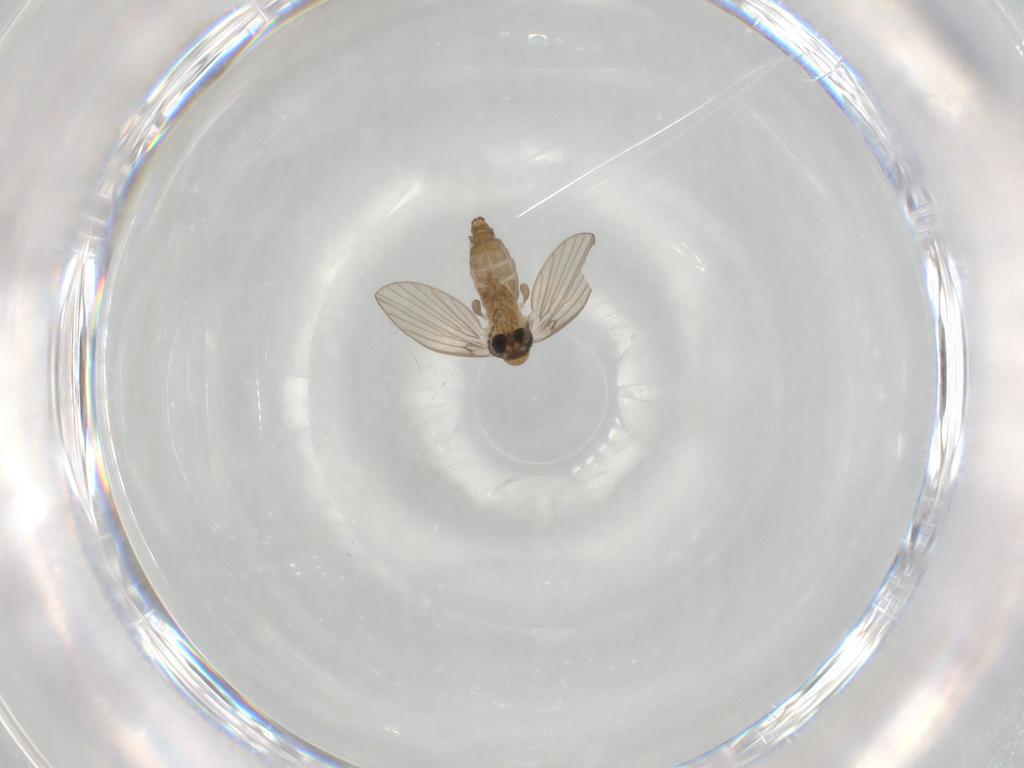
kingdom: Animalia
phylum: Arthropoda
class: Insecta
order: Diptera
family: Psychodidae
